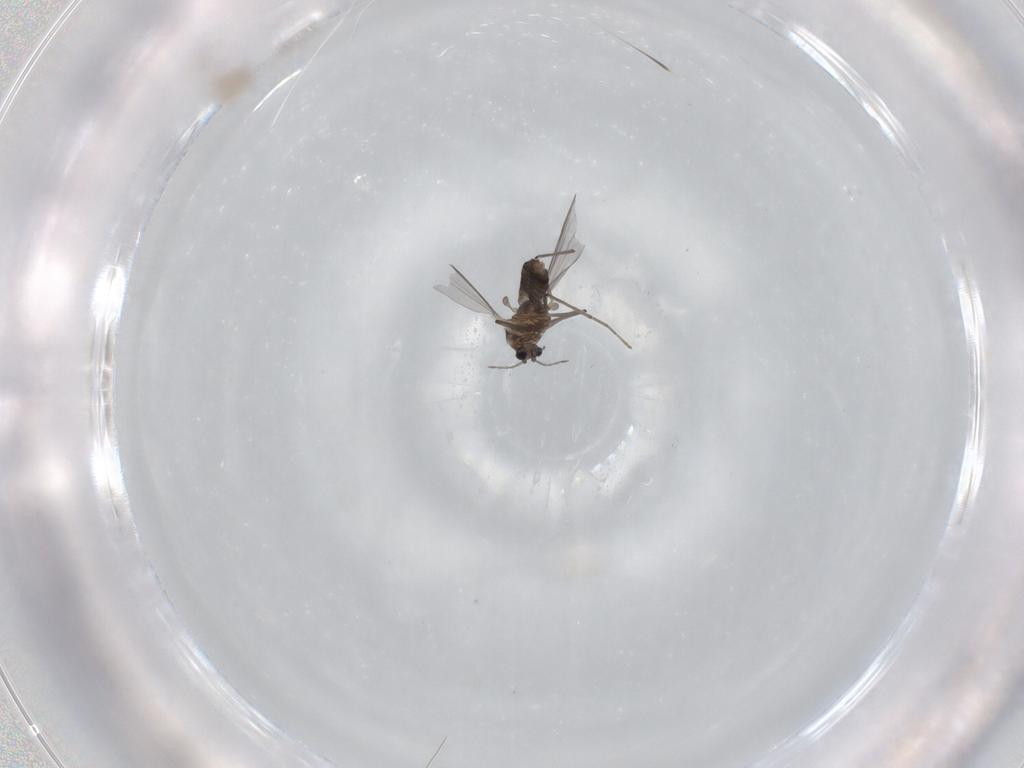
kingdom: Animalia
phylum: Arthropoda
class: Insecta
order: Diptera
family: Chironomidae
